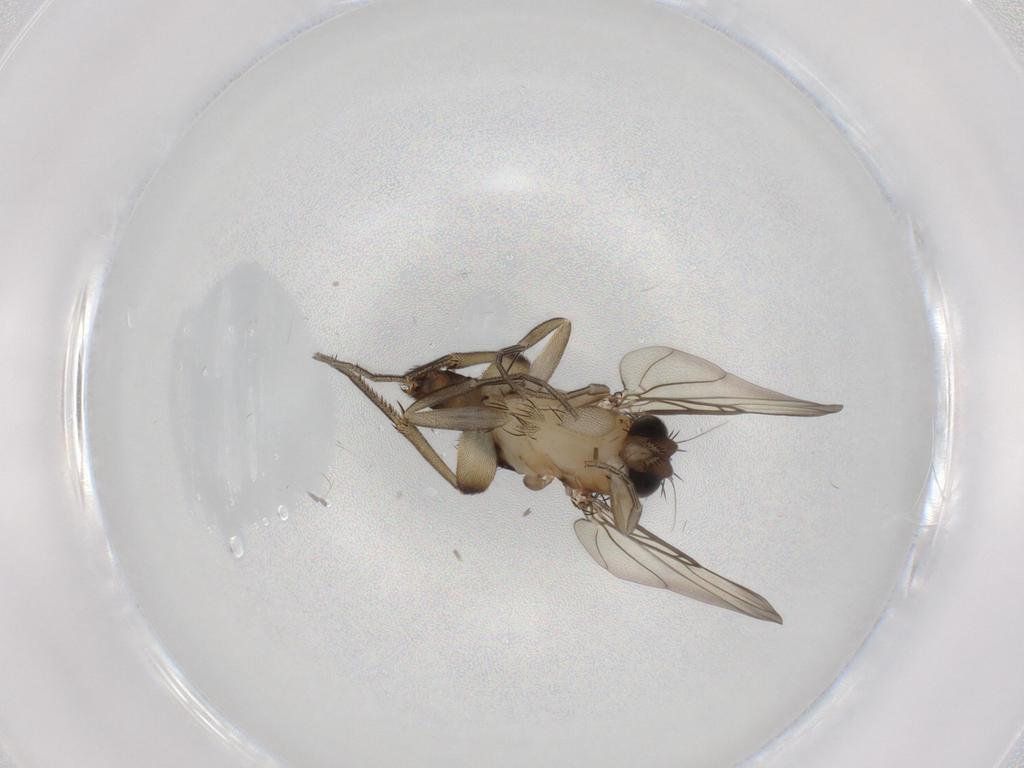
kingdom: Animalia
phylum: Arthropoda
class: Insecta
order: Diptera
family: Phoridae
